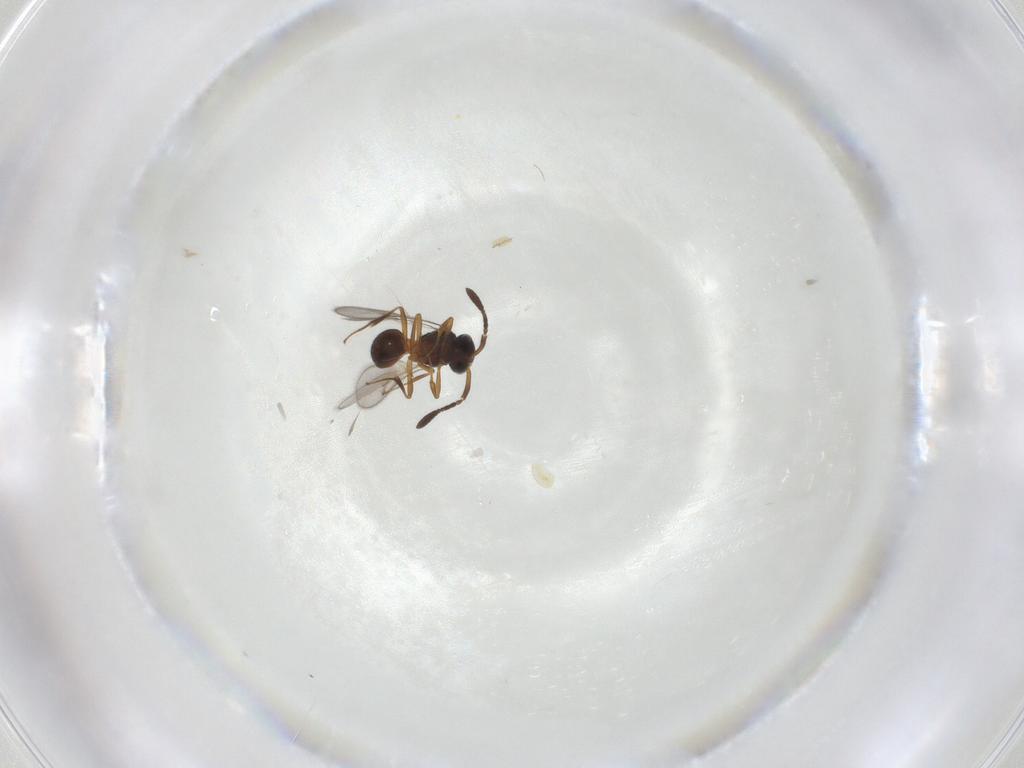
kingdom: Animalia
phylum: Arthropoda
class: Insecta
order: Hymenoptera
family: Scelionidae
